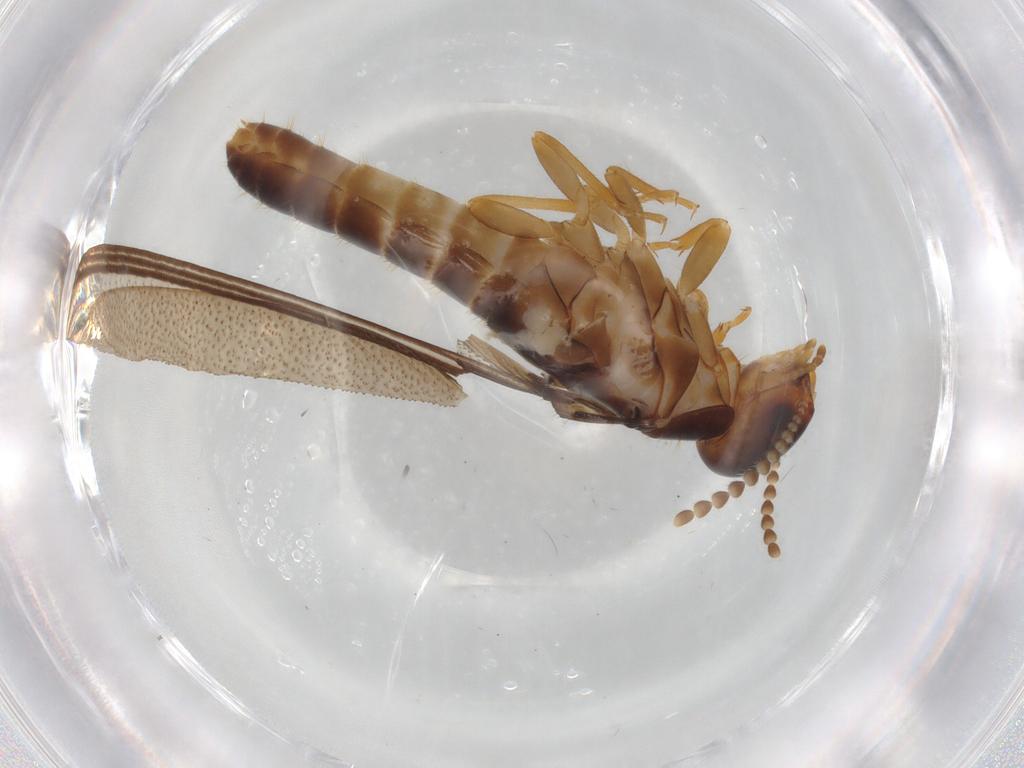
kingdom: Animalia
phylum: Arthropoda
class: Insecta
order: Blattodea
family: Kalotermitidae
